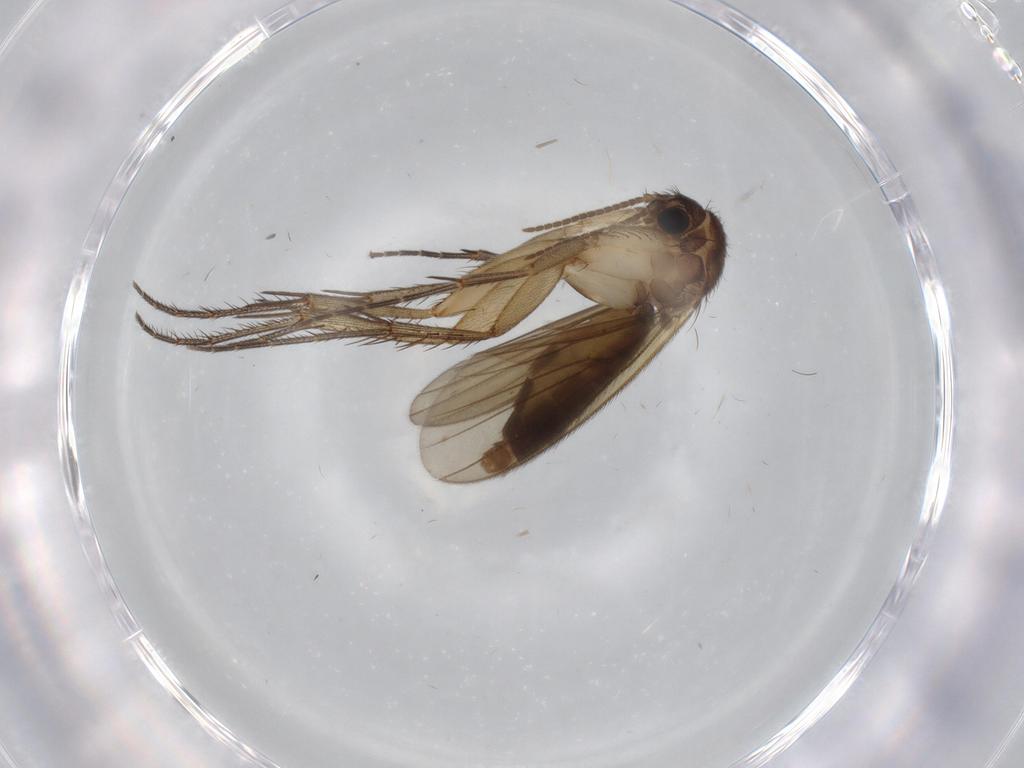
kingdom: Animalia
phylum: Arthropoda
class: Insecta
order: Diptera
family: Mycetophilidae
